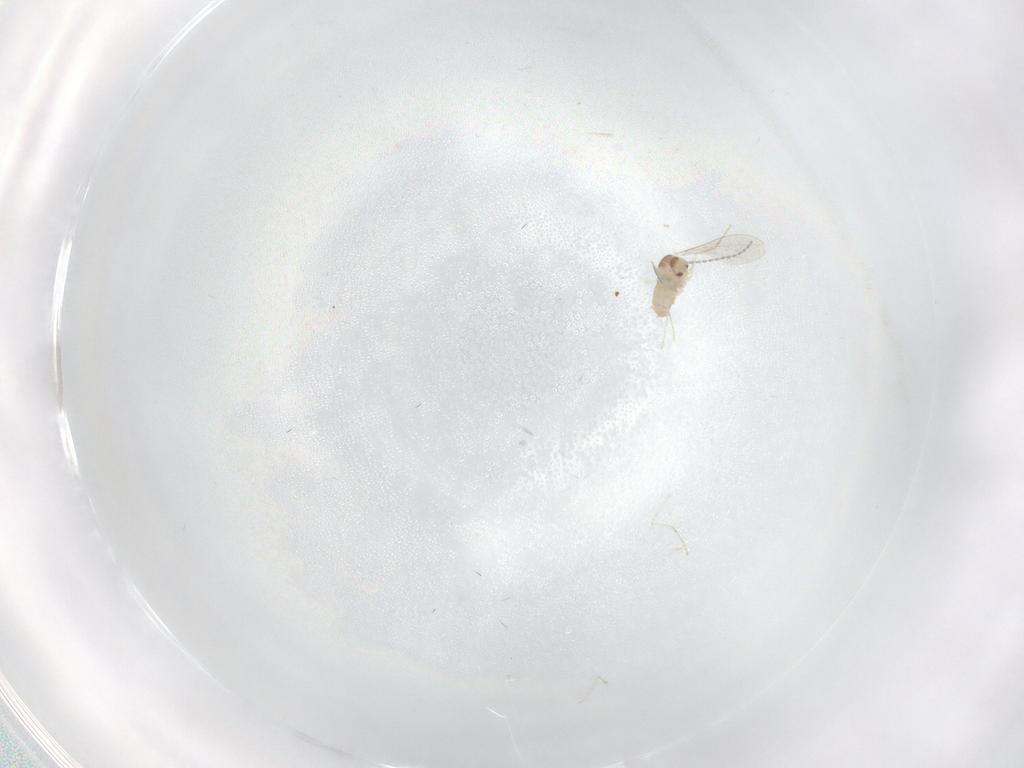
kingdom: Animalia
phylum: Arthropoda
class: Insecta
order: Diptera
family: Cecidomyiidae
